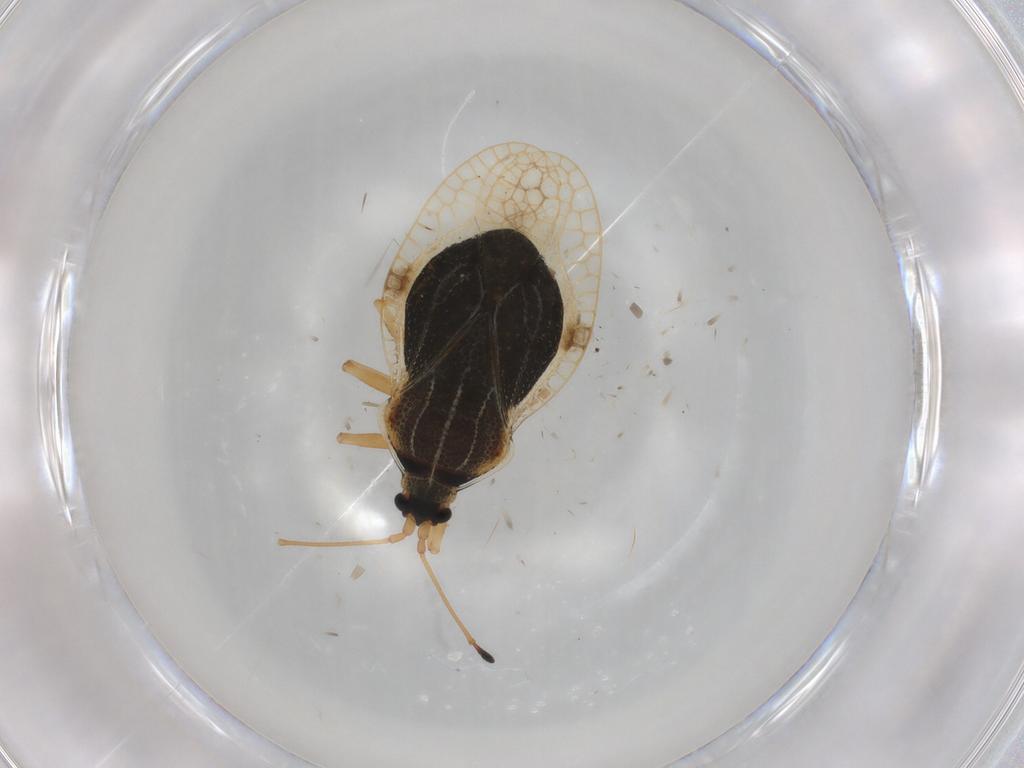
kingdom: Animalia
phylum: Arthropoda
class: Insecta
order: Hemiptera
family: Tingidae
